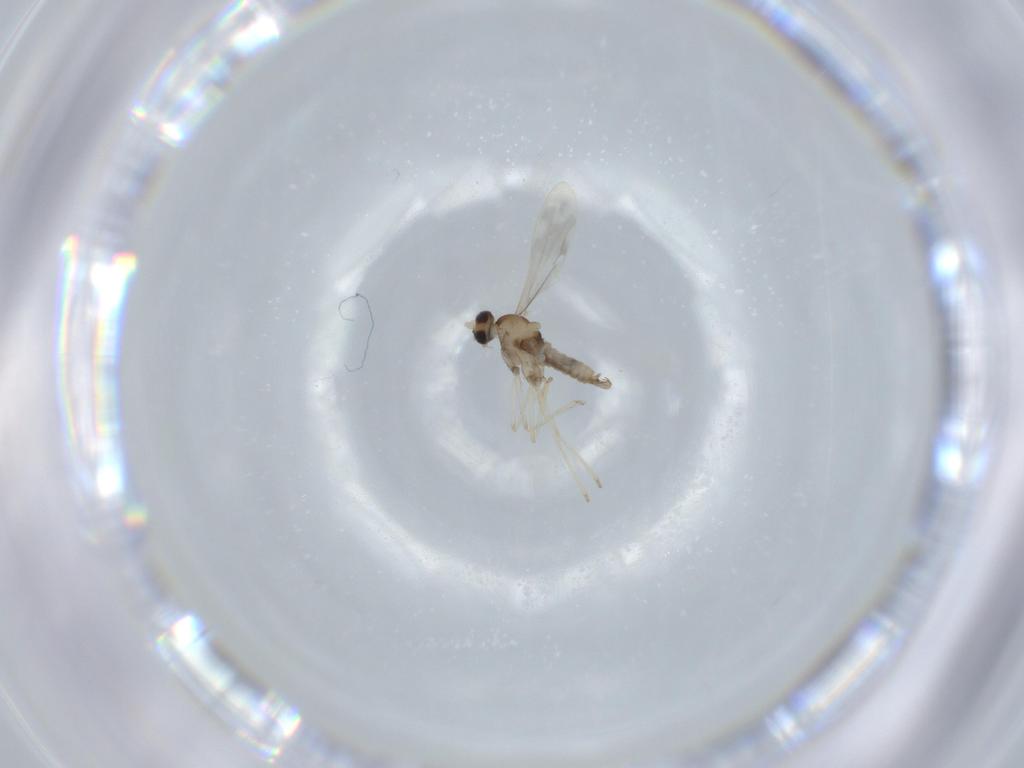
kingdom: Animalia
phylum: Arthropoda
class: Insecta
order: Diptera
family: Cecidomyiidae
